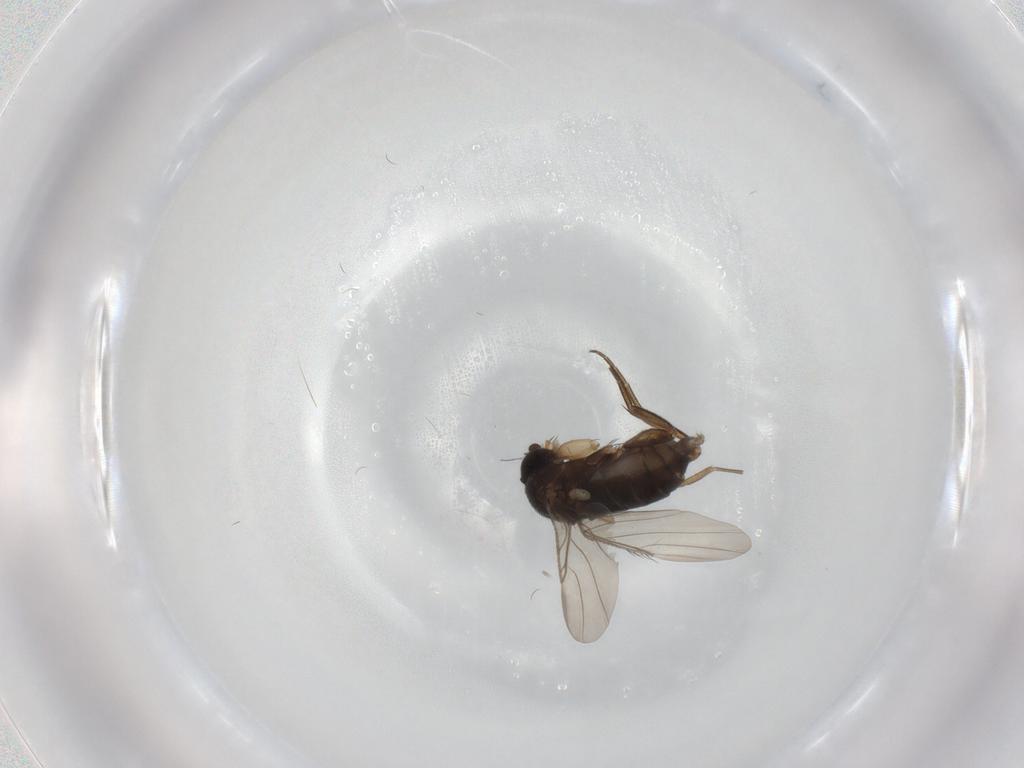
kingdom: Animalia
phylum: Arthropoda
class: Insecta
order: Diptera
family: Phoridae
